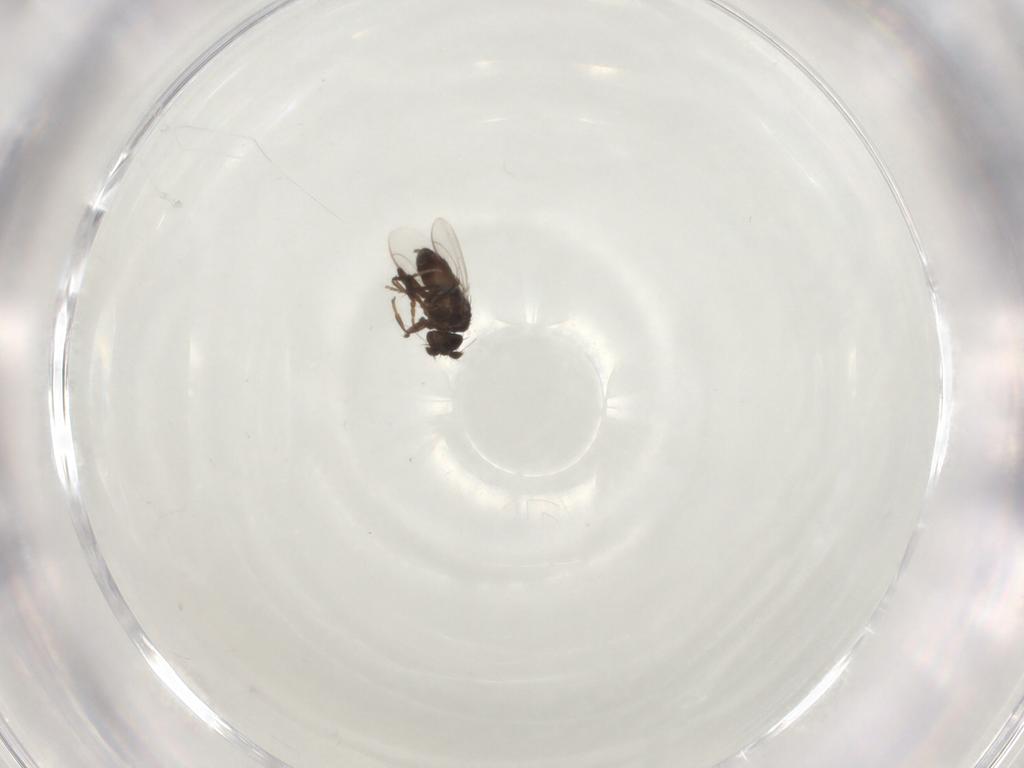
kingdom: Animalia
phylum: Arthropoda
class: Insecta
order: Diptera
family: Sphaeroceridae
